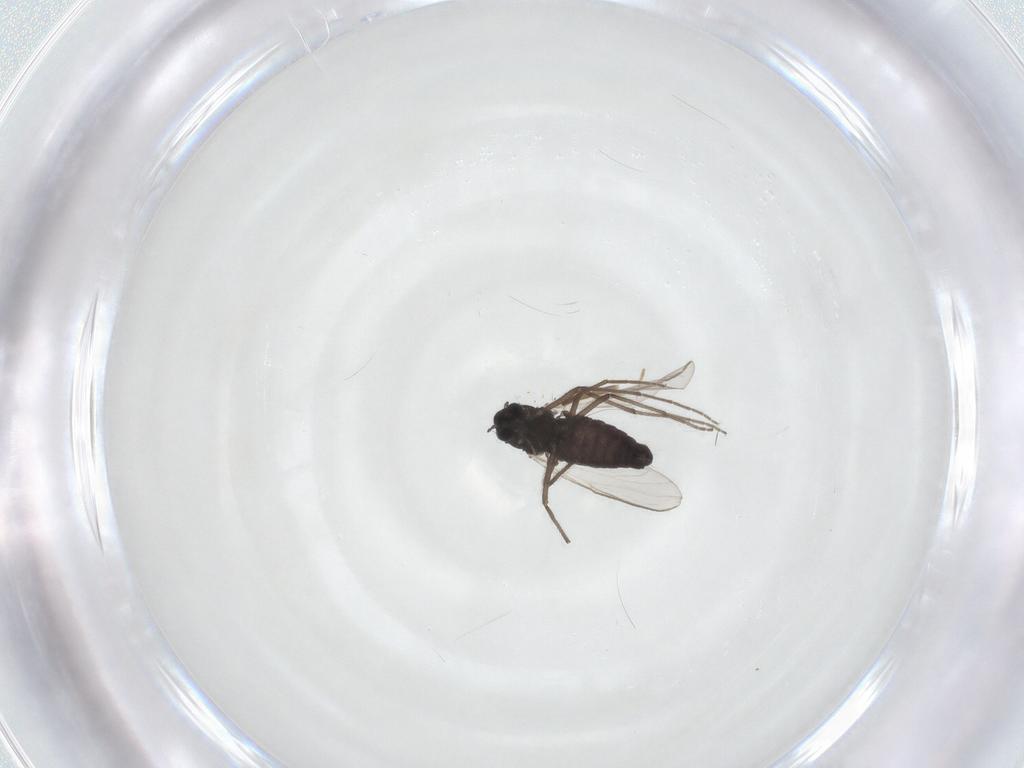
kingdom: Animalia
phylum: Arthropoda
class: Insecta
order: Diptera
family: Chironomidae
